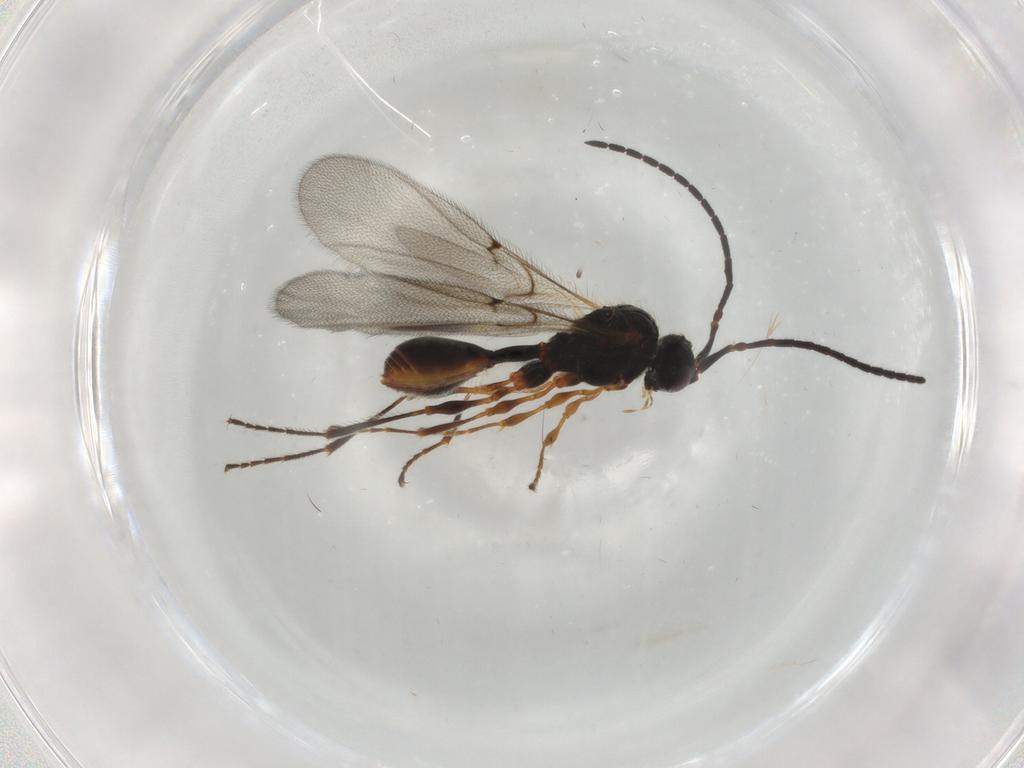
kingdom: Animalia
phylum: Arthropoda
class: Insecta
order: Hymenoptera
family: Diapriidae
